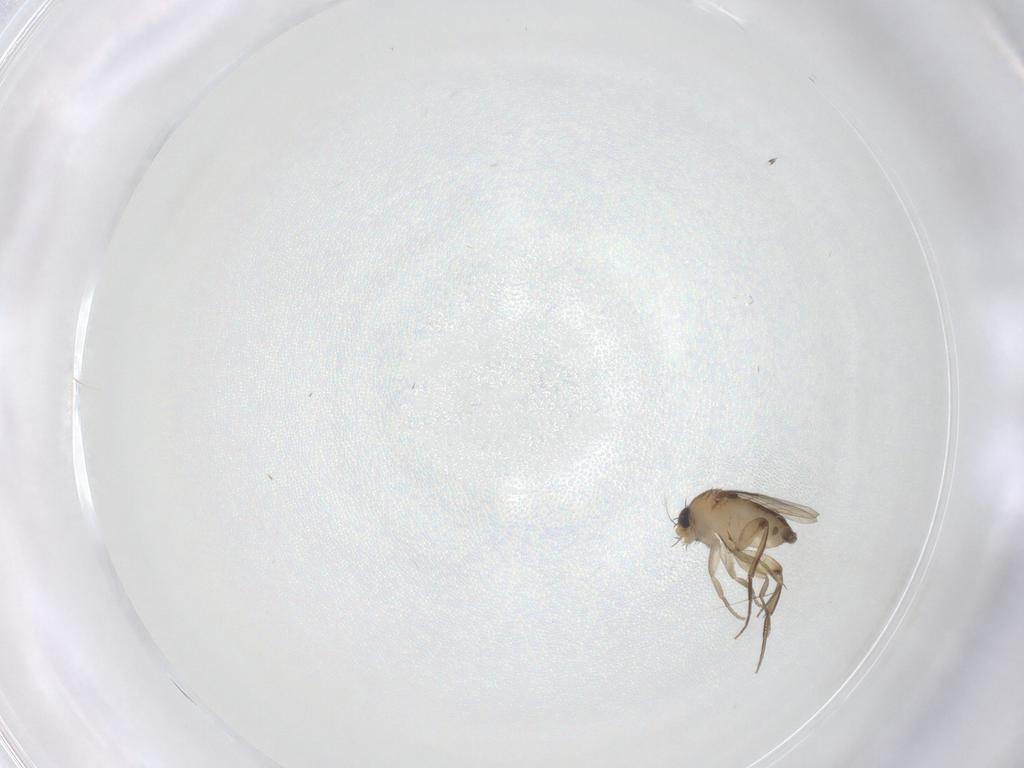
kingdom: Animalia
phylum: Arthropoda
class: Insecta
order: Diptera
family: Phoridae
